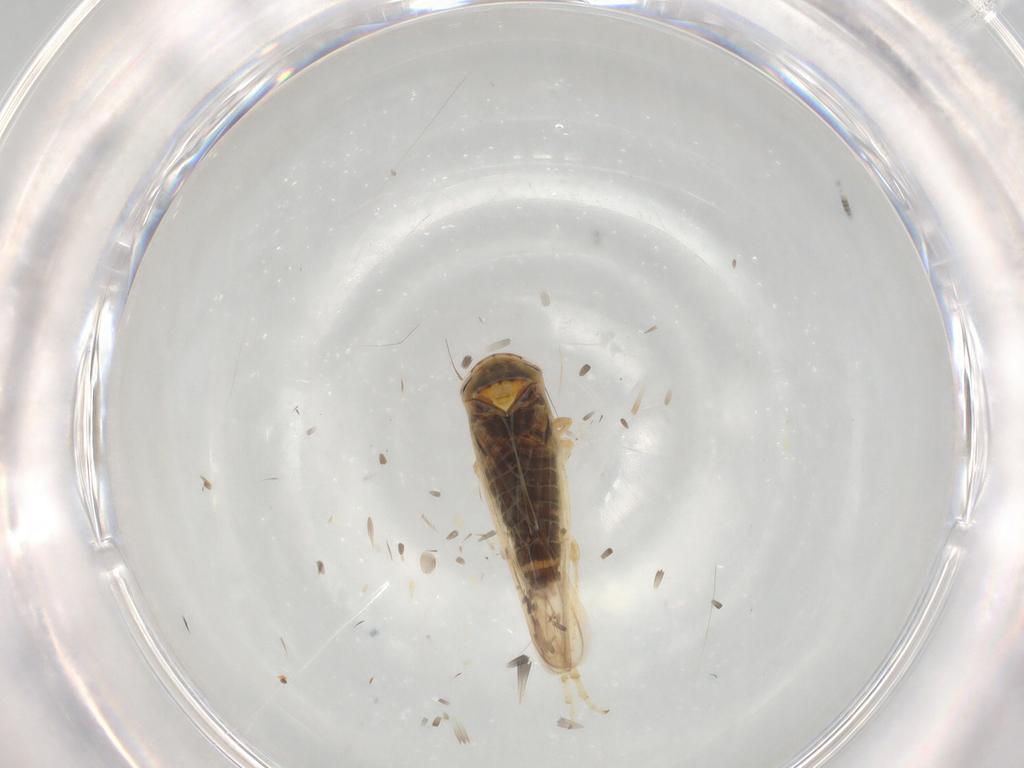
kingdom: Animalia
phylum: Arthropoda
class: Insecta
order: Hemiptera
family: Cicadellidae
